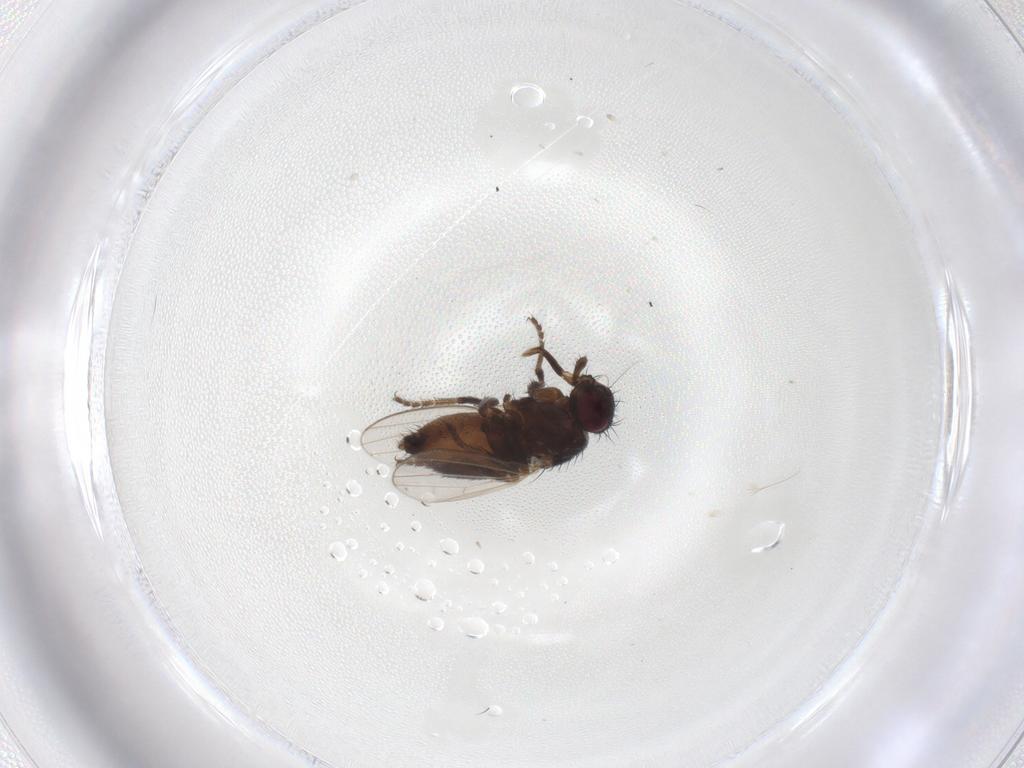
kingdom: Animalia
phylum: Arthropoda
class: Insecta
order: Diptera
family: Milichiidae
